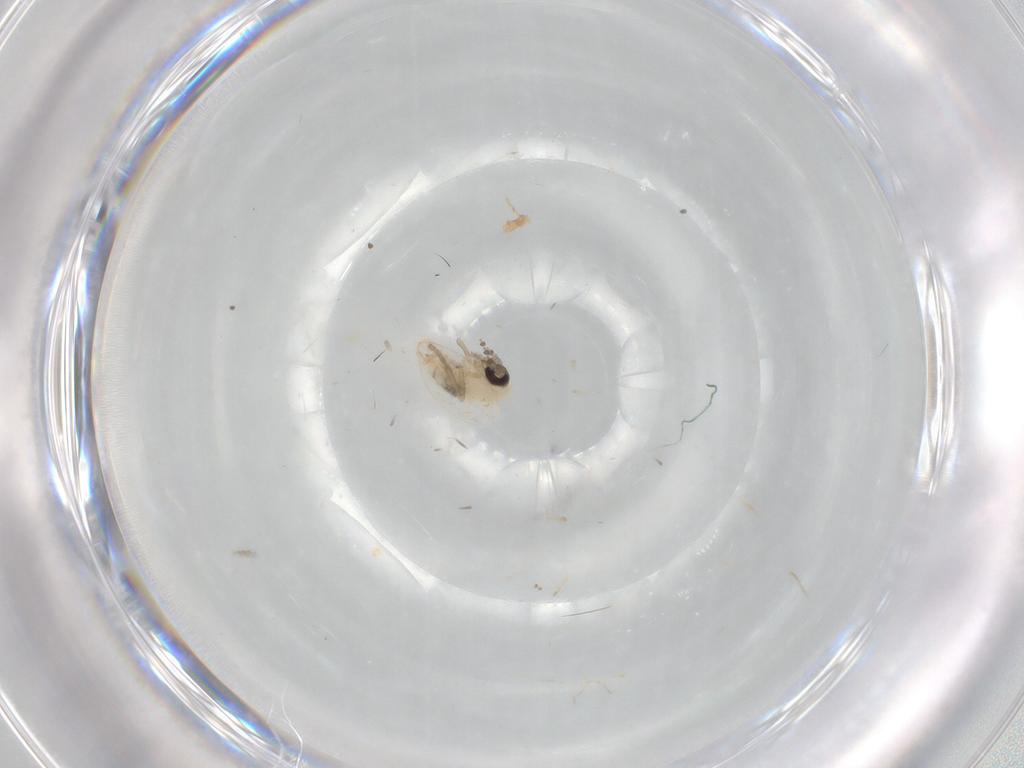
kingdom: Animalia
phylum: Arthropoda
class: Insecta
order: Diptera
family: Psychodidae
